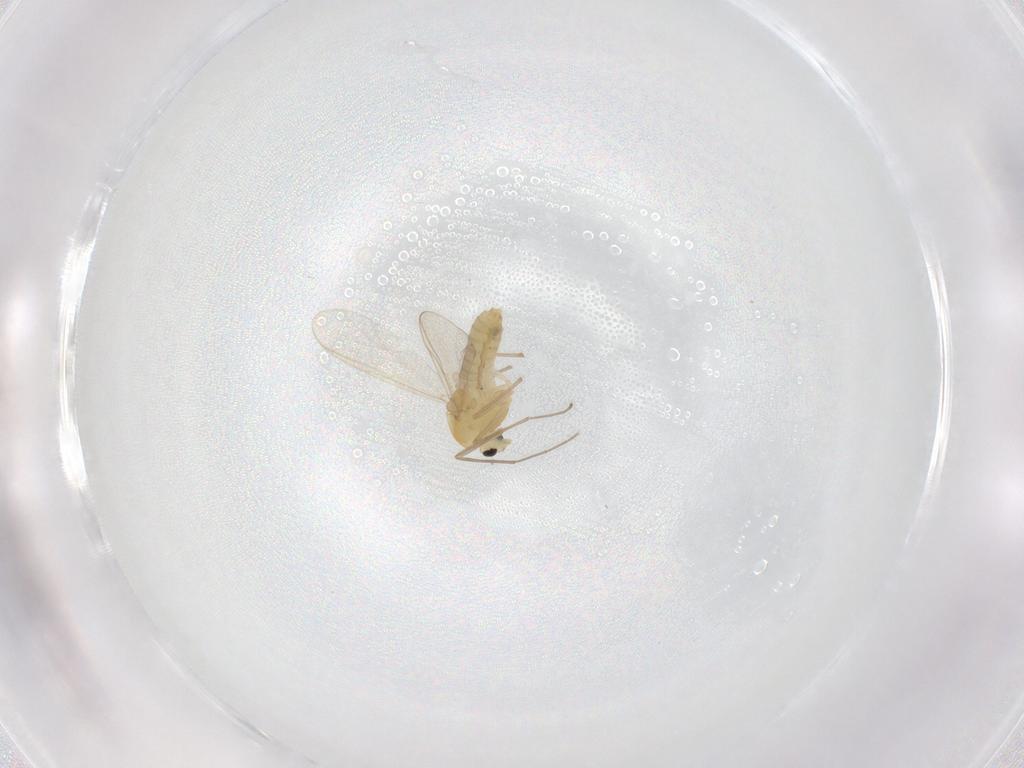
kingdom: Animalia
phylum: Arthropoda
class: Insecta
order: Diptera
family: Chironomidae
